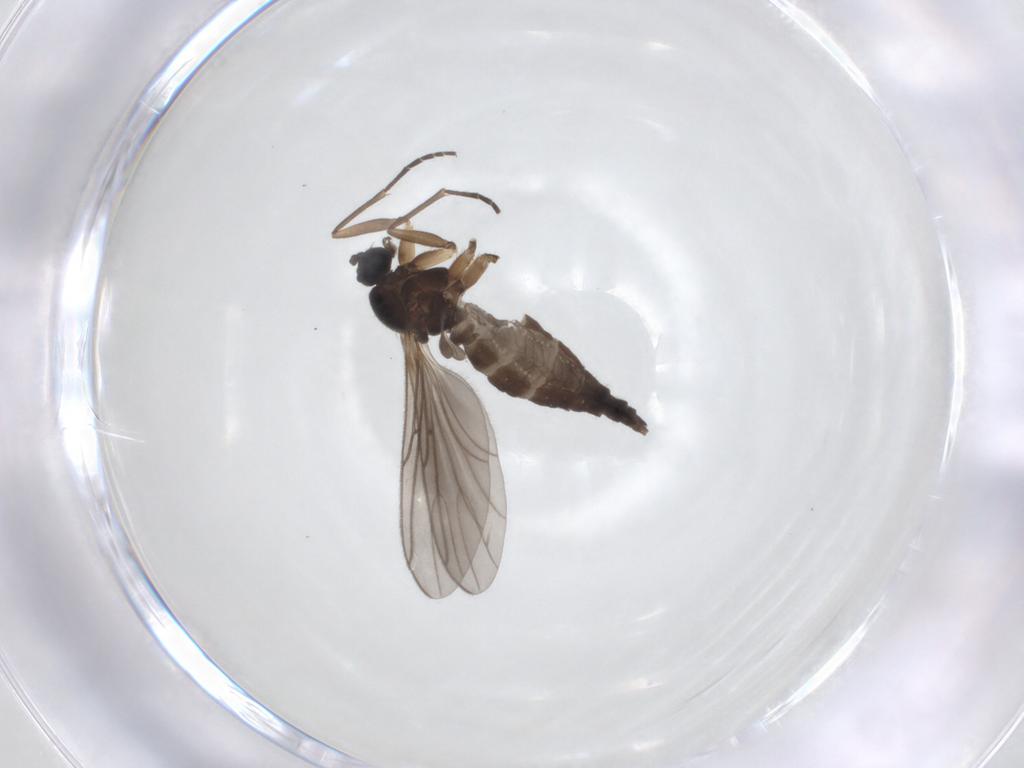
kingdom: Animalia
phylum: Arthropoda
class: Insecta
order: Diptera
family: Sciaridae
